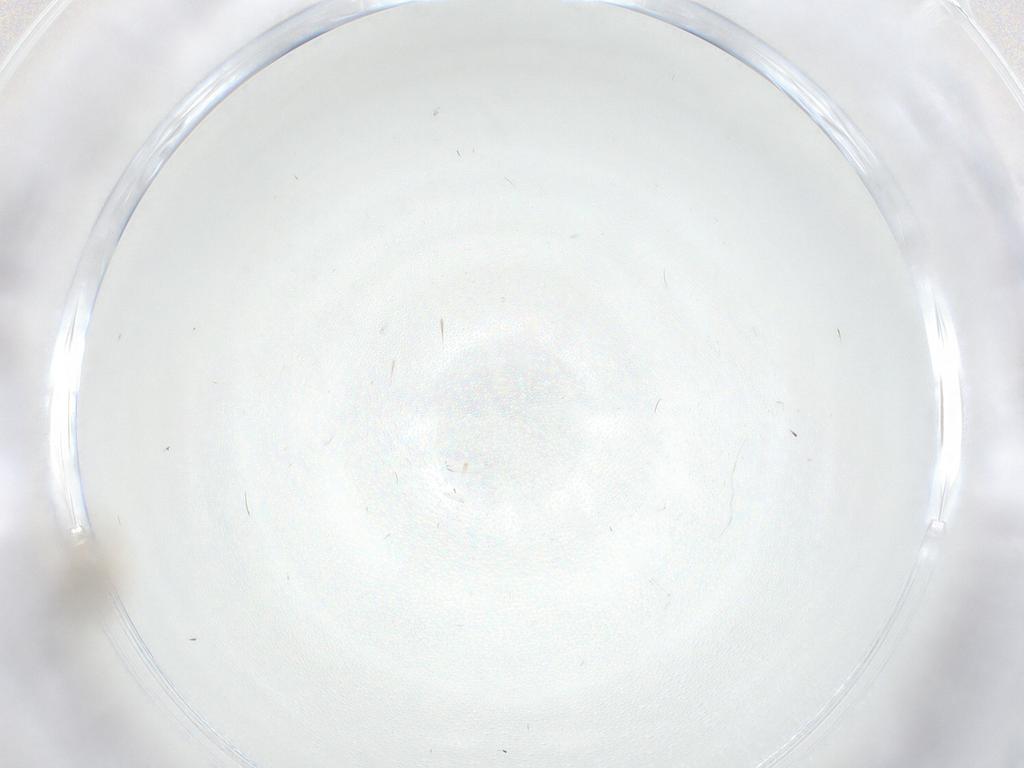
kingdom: Animalia
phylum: Arthropoda
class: Insecta
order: Diptera
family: Cecidomyiidae
